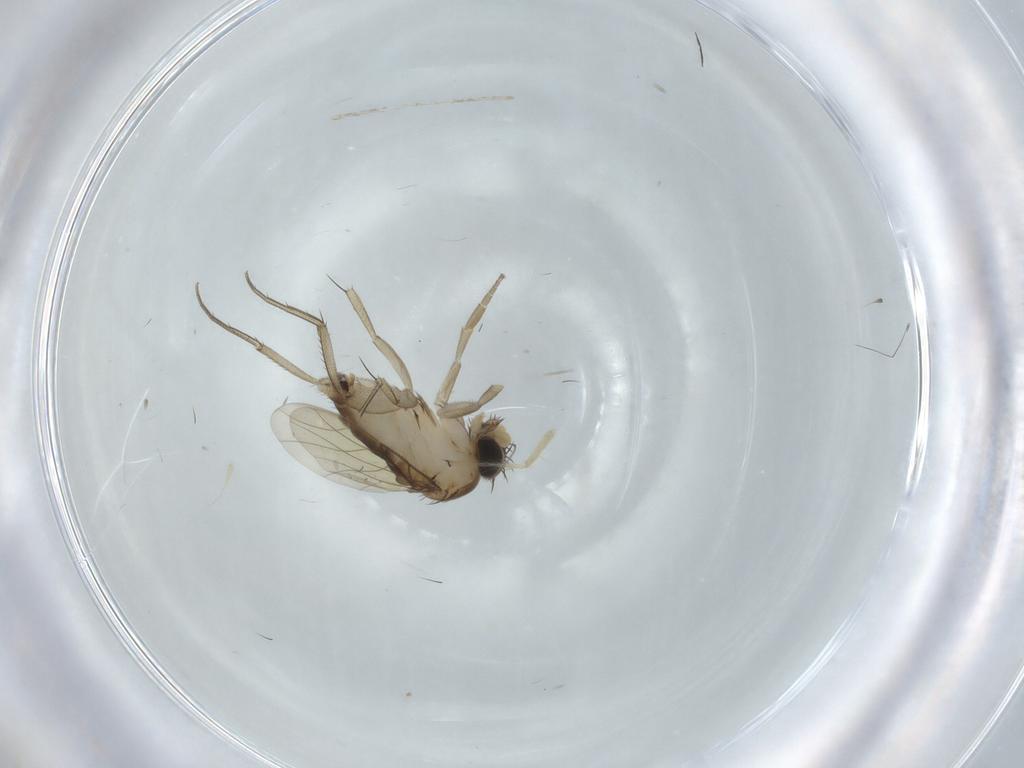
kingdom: Animalia
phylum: Arthropoda
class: Insecta
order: Diptera
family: Phoridae
